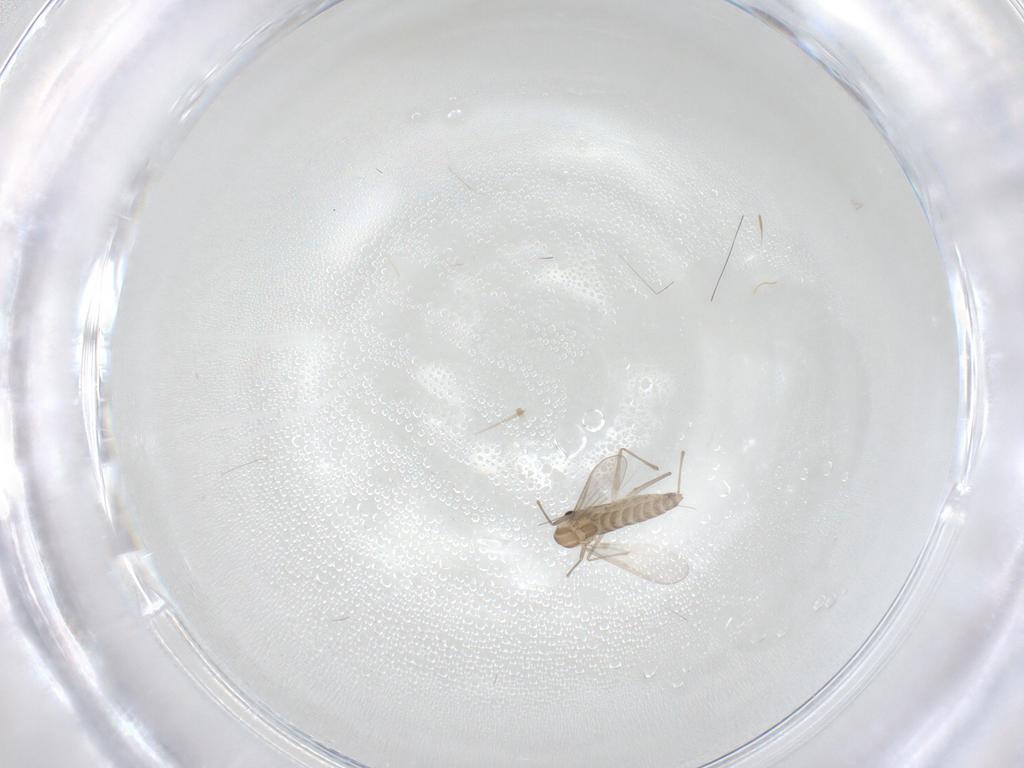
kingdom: Animalia
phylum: Arthropoda
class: Insecta
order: Diptera
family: Chironomidae
